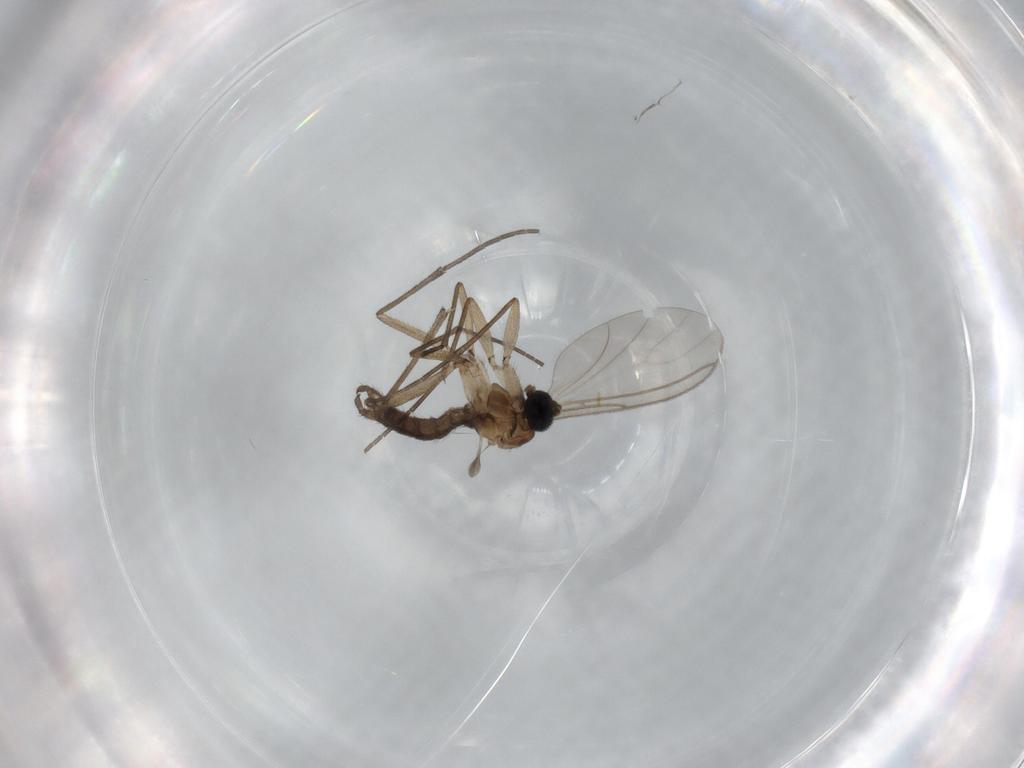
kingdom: Animalia
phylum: Arthropoda
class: Insecta
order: Diptera
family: Sciaridae
